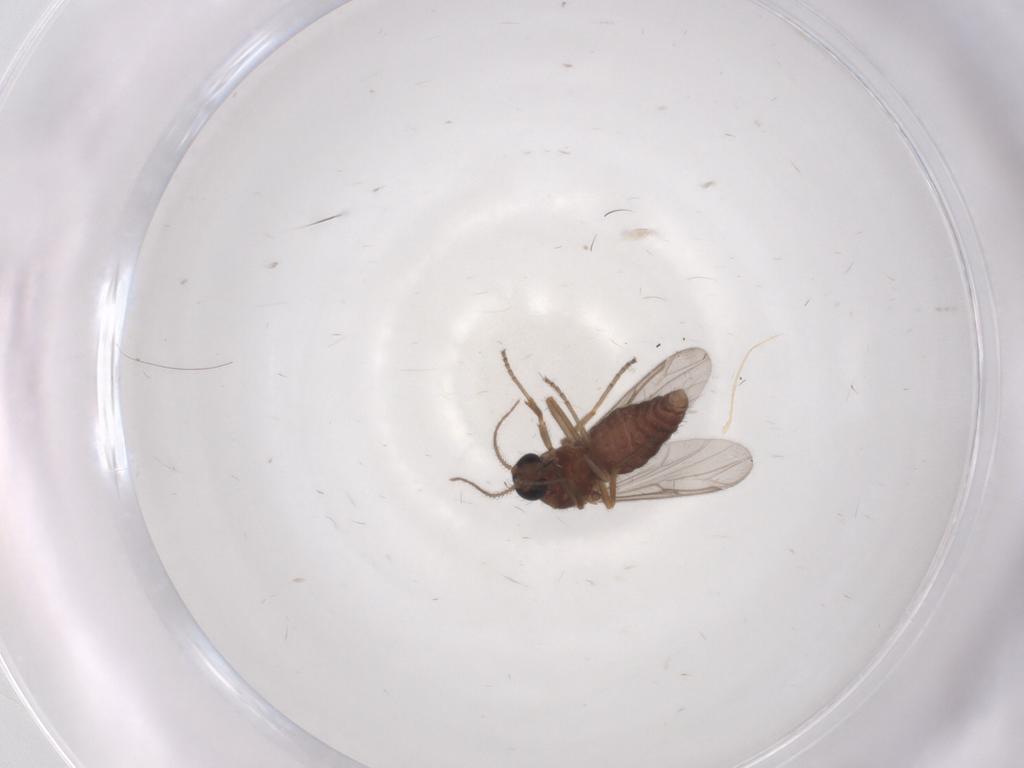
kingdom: Animalia
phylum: Arthropoda
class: Insecta
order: Diptera
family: Ceratopogonidae
